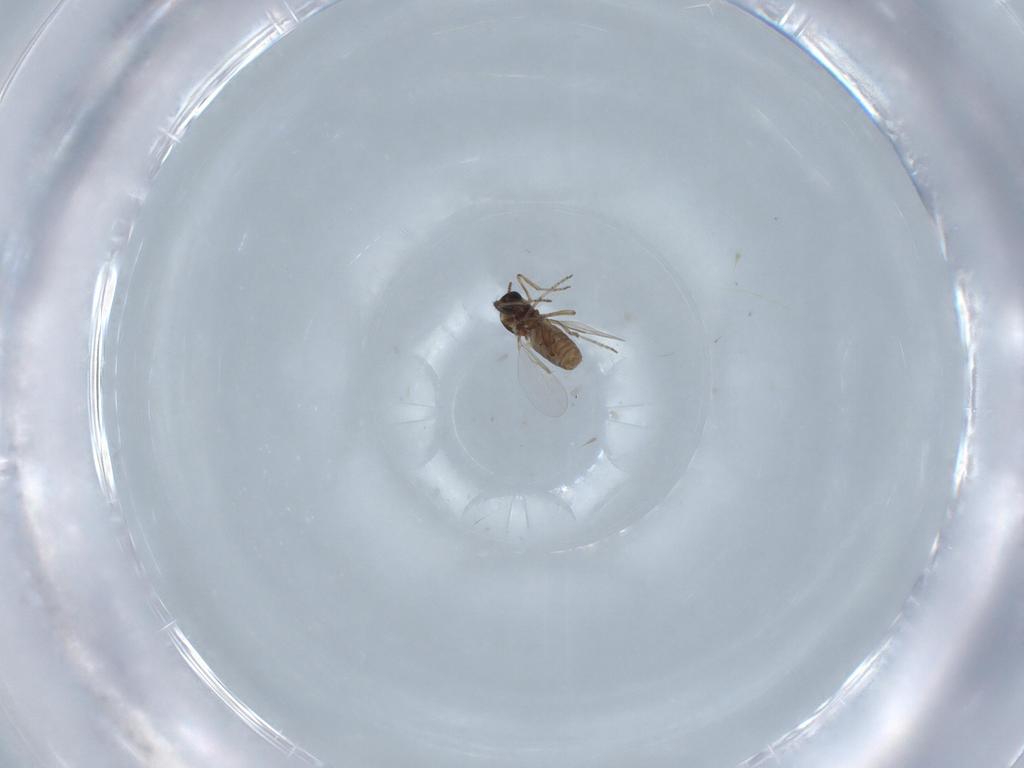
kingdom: Animalia
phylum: Arthropoda
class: Insecta
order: Diptera
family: Ceratopogonidae
